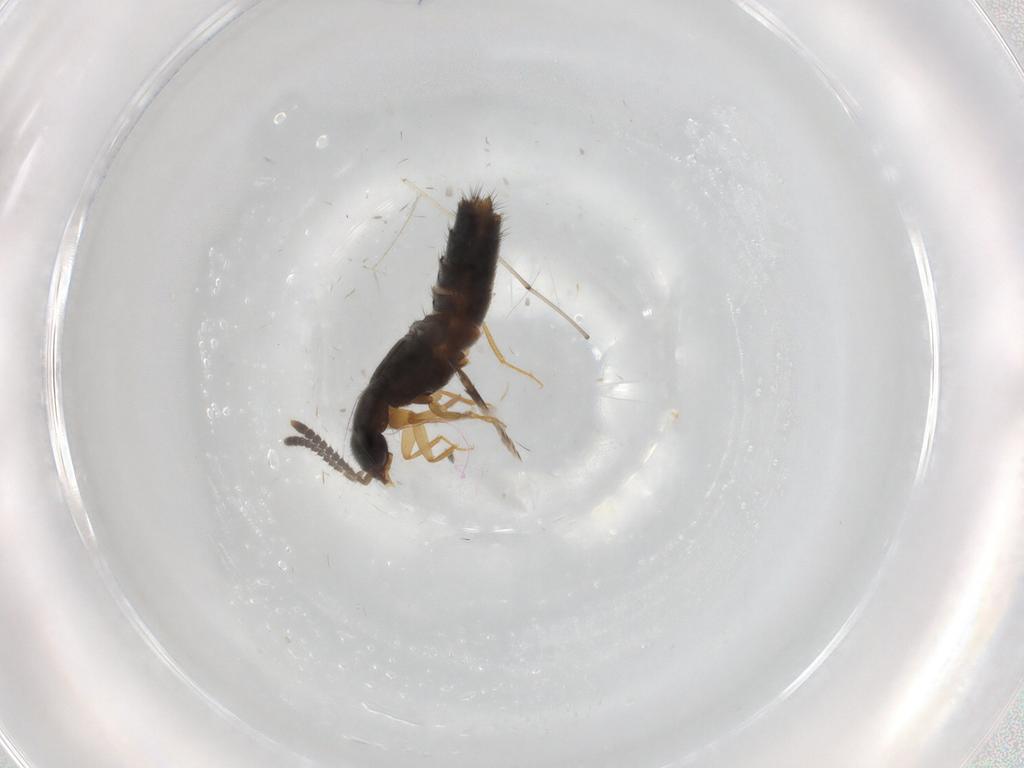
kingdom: Animalia
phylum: Arthropoda
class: Insecta
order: Coleoptera
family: Staphylinidae
